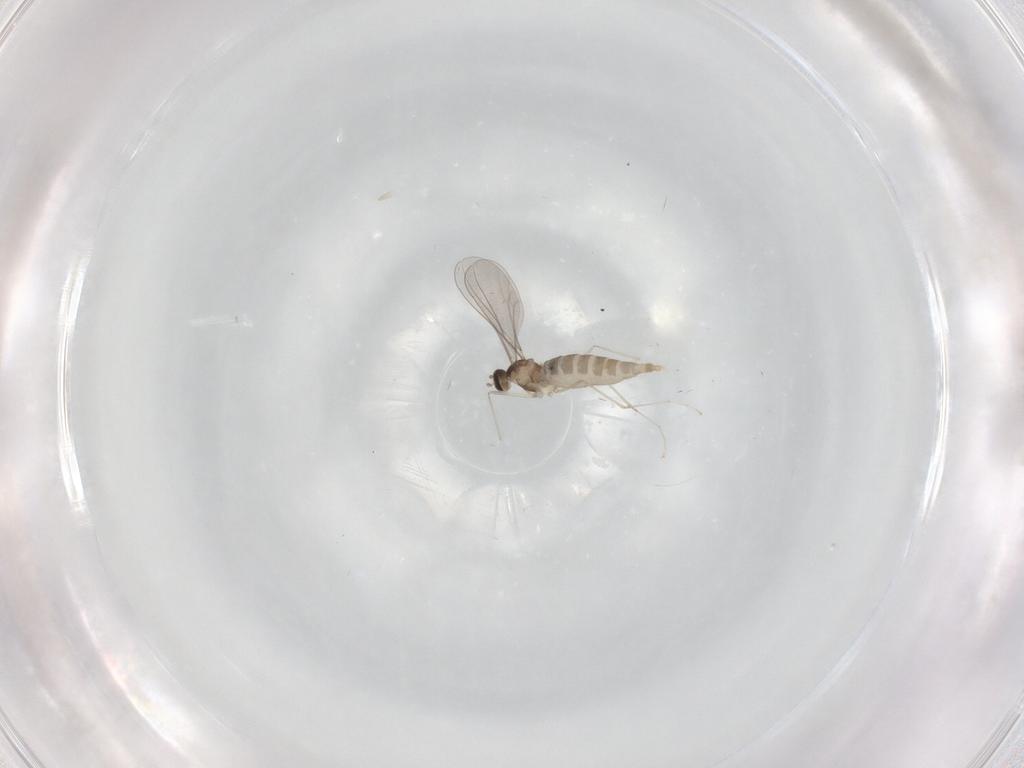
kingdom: Animalia
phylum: Arthropoda
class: Insecta
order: Diptera
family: Cecidomyiidae
